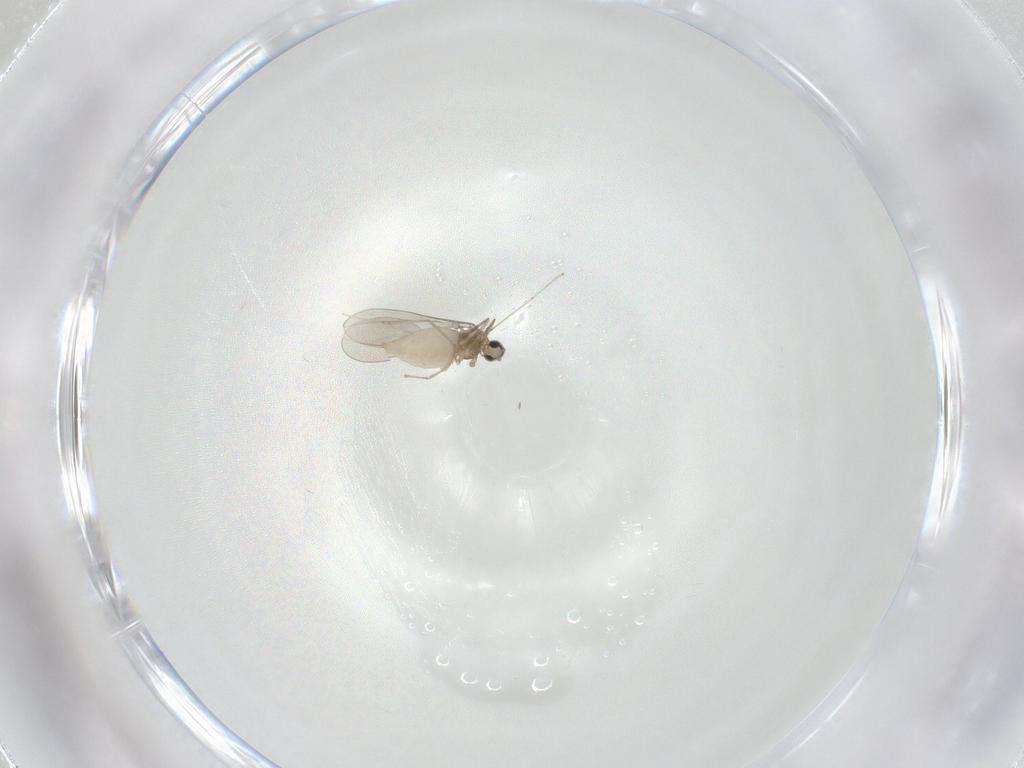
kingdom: Animalia
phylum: Arthropoda
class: Insecta
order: Diptera
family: Cecidomyiidae
